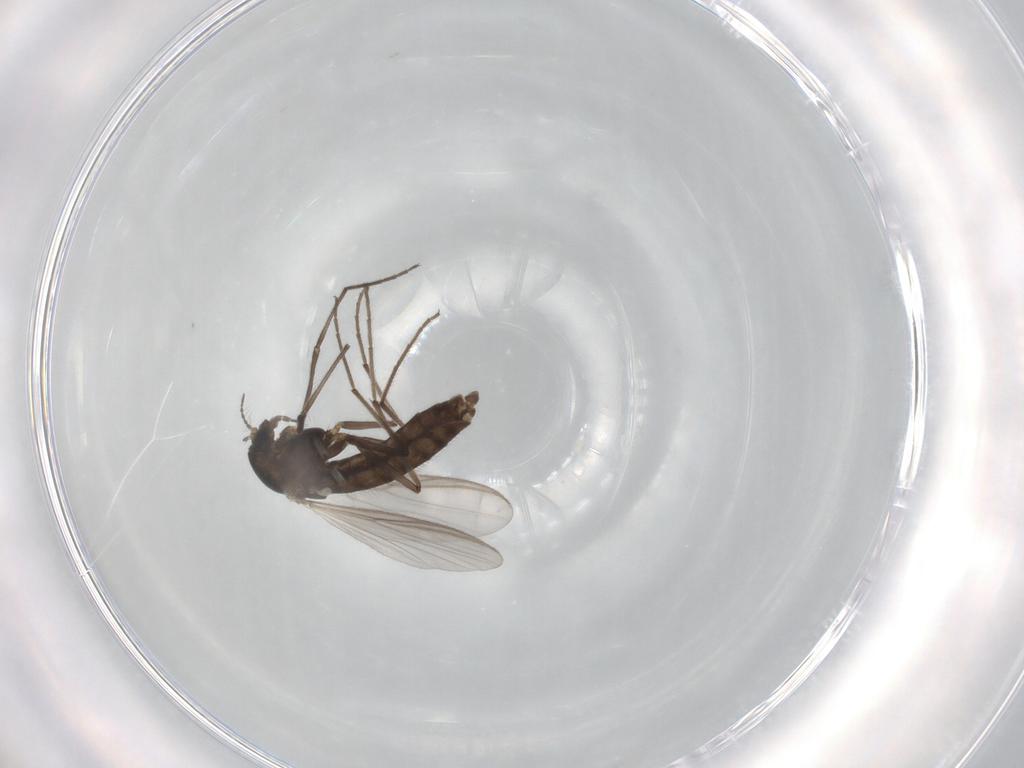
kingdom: Animalia
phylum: Arthropoda
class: Insecta
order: Diptera
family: Chironomidae
